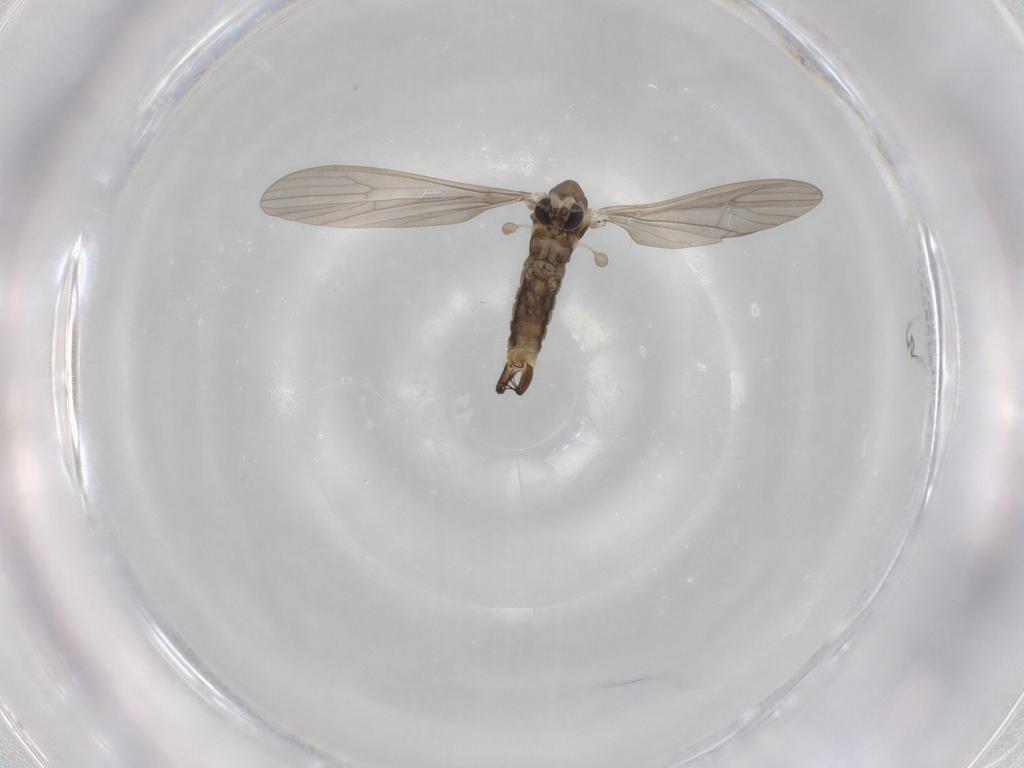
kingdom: Animalia
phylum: Arthropoda
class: Insecta
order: Diptera
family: Limoniidae
